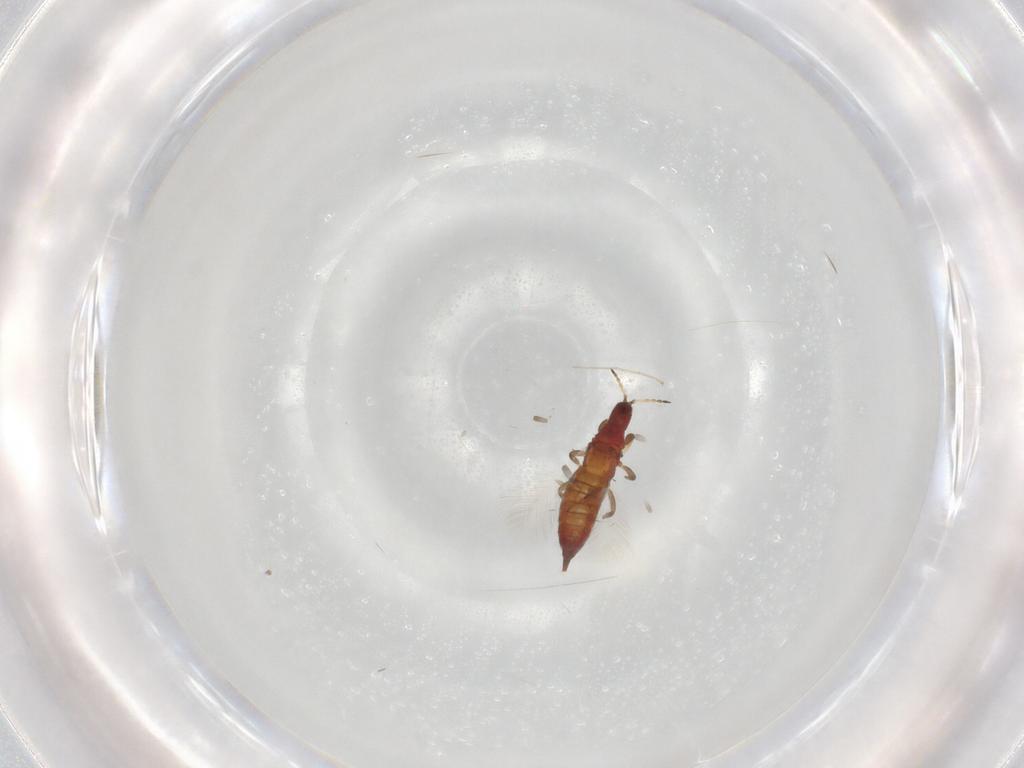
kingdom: Animalia
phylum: Arthropoda
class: Insecta
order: Thysanoptera
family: Phlaeothripidae
